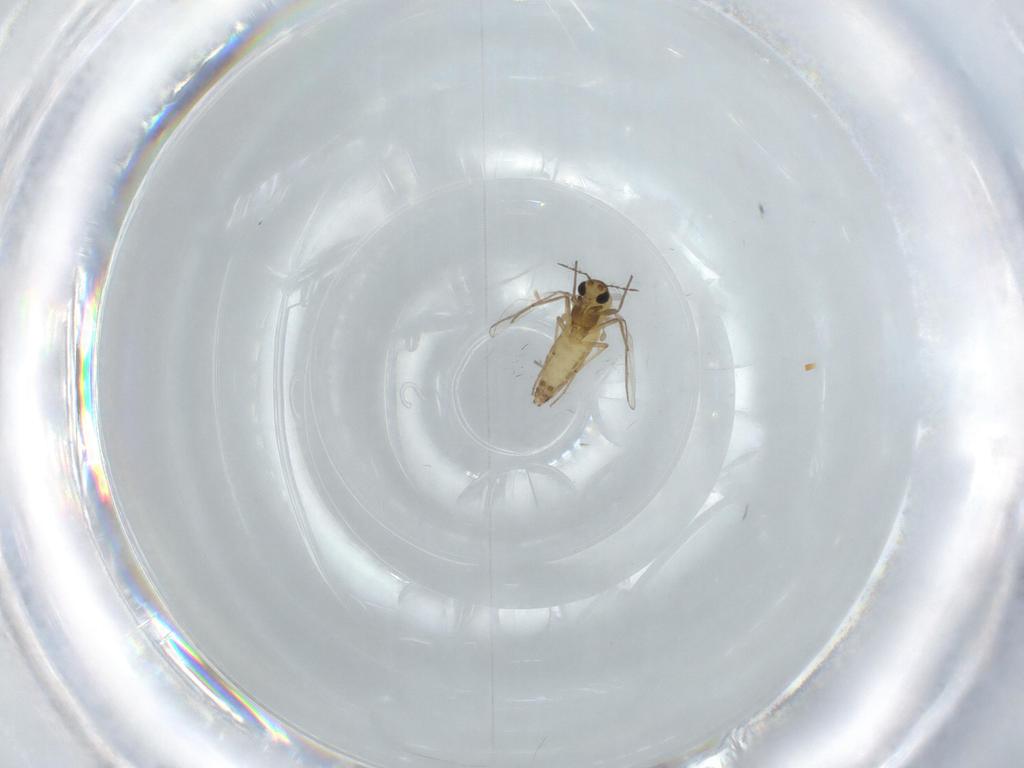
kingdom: Animalia
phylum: Arthropoda
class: Insecta
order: Diptera
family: Chironomidae
